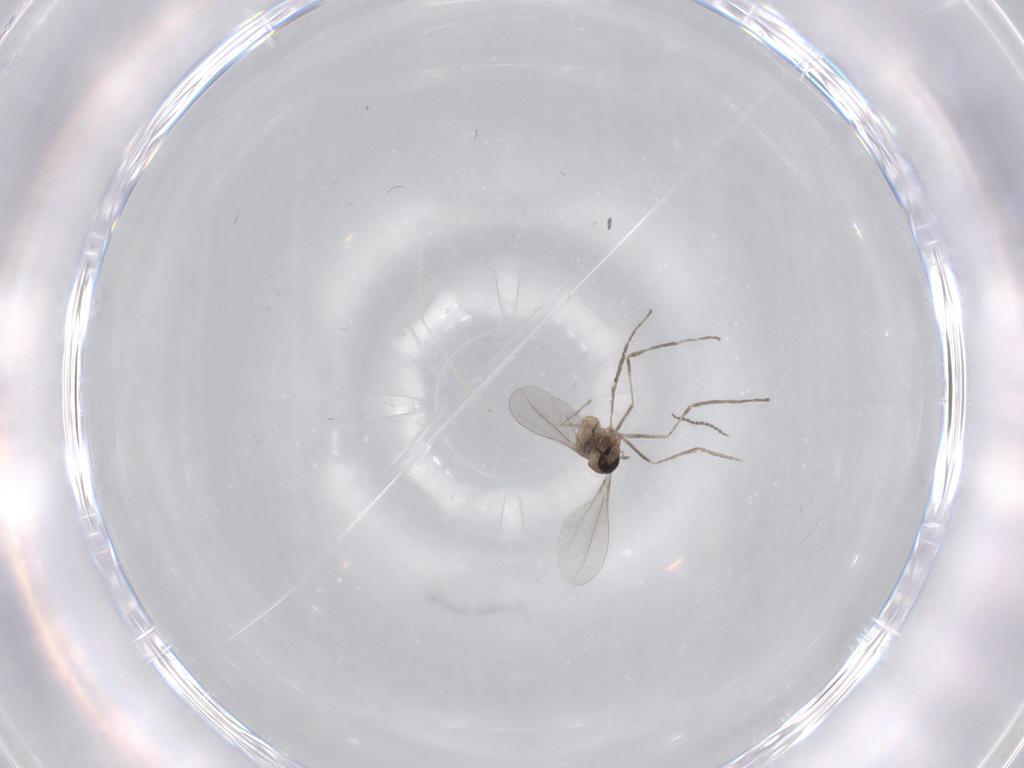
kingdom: Animalia
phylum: Arthropoda
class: Insecta
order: Diptera
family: Cecidomyiidae
